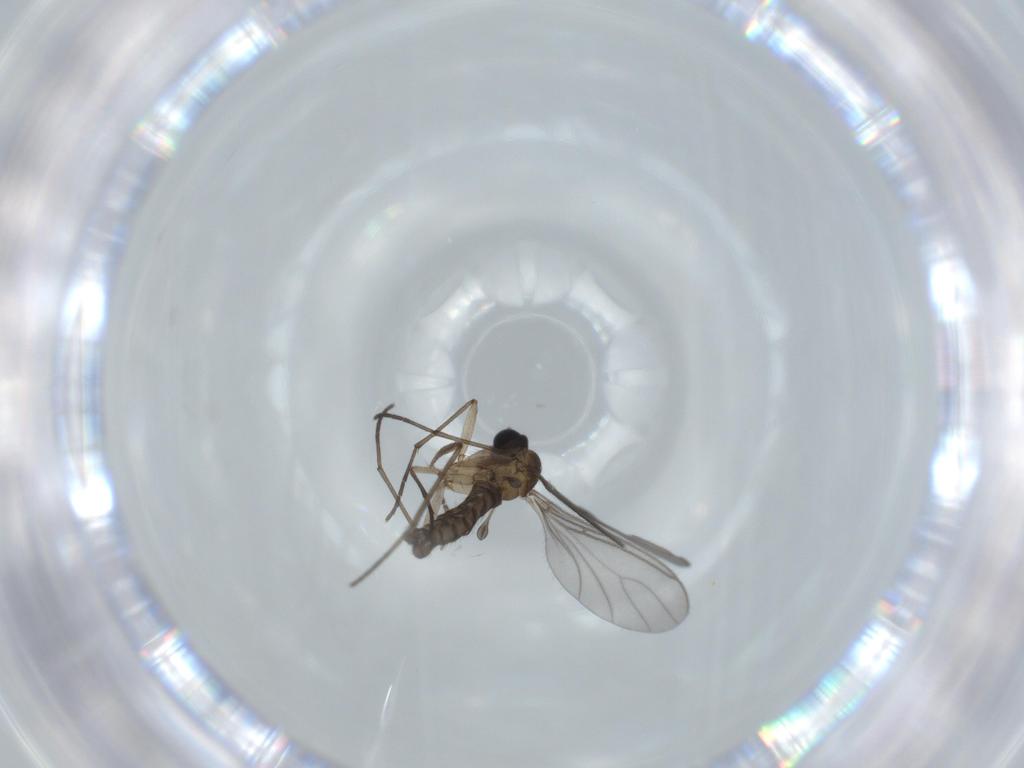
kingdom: Animalia
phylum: Arthropoda
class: Insecta
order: Diptera
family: Sciaridae
